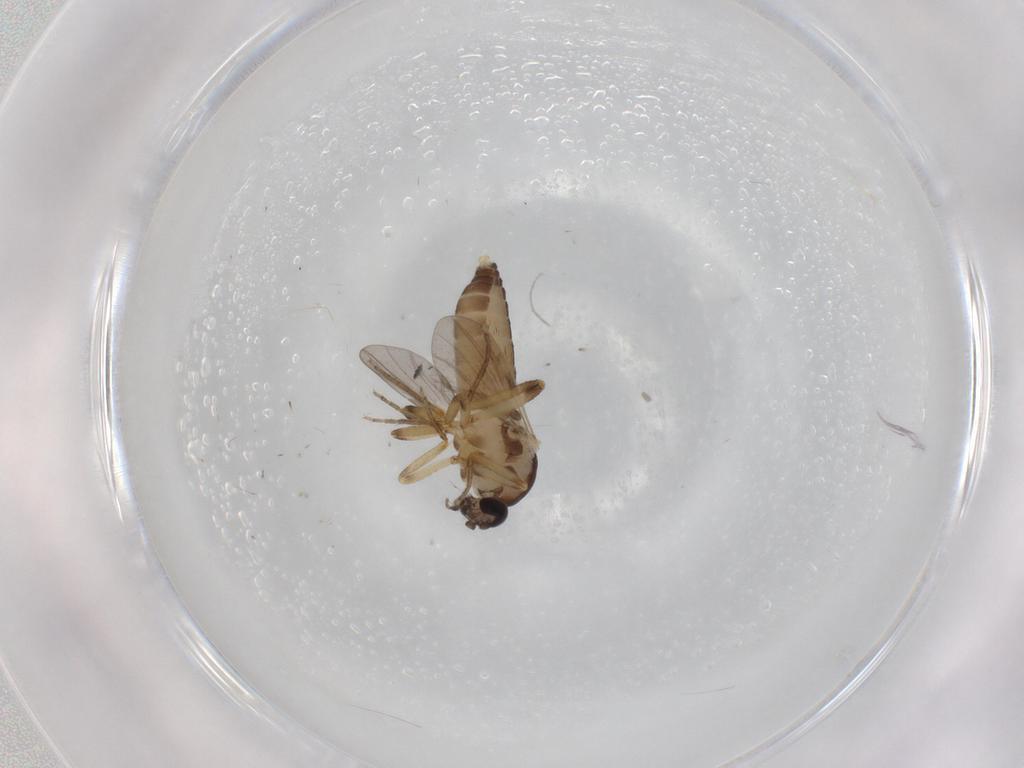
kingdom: Animalia
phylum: Arthropoda
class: Insecta
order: Diptera
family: Ceratopogonidae
